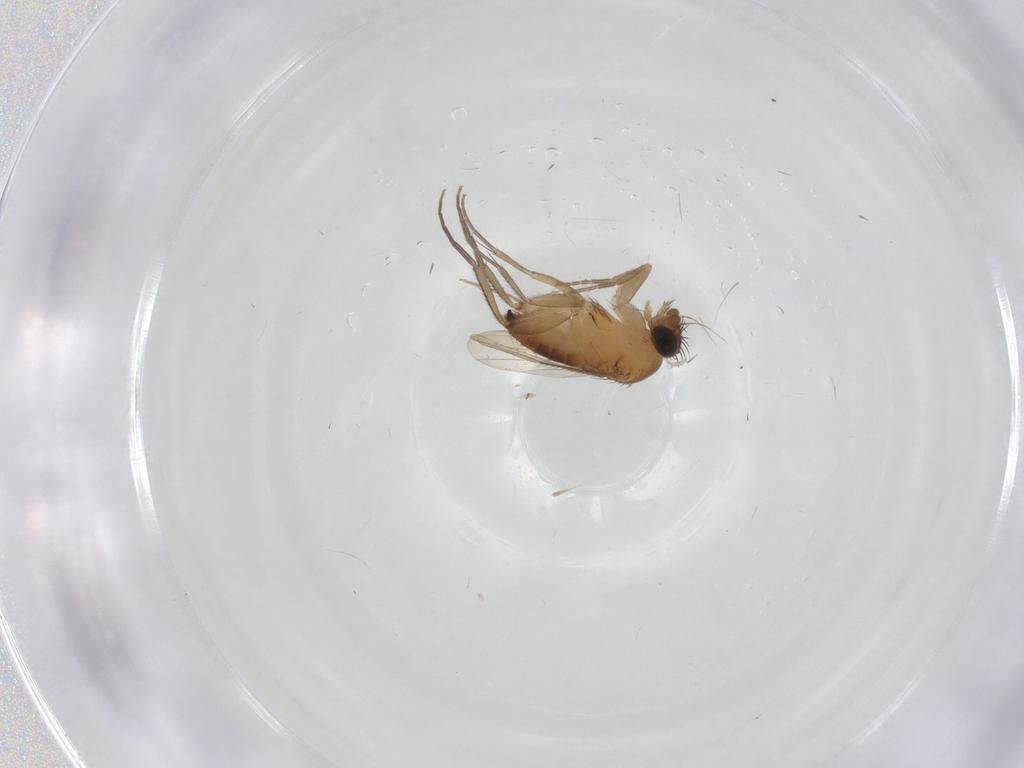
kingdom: Animalia
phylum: Arthropoda
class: Insecta
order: Diptera
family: Phoridae
